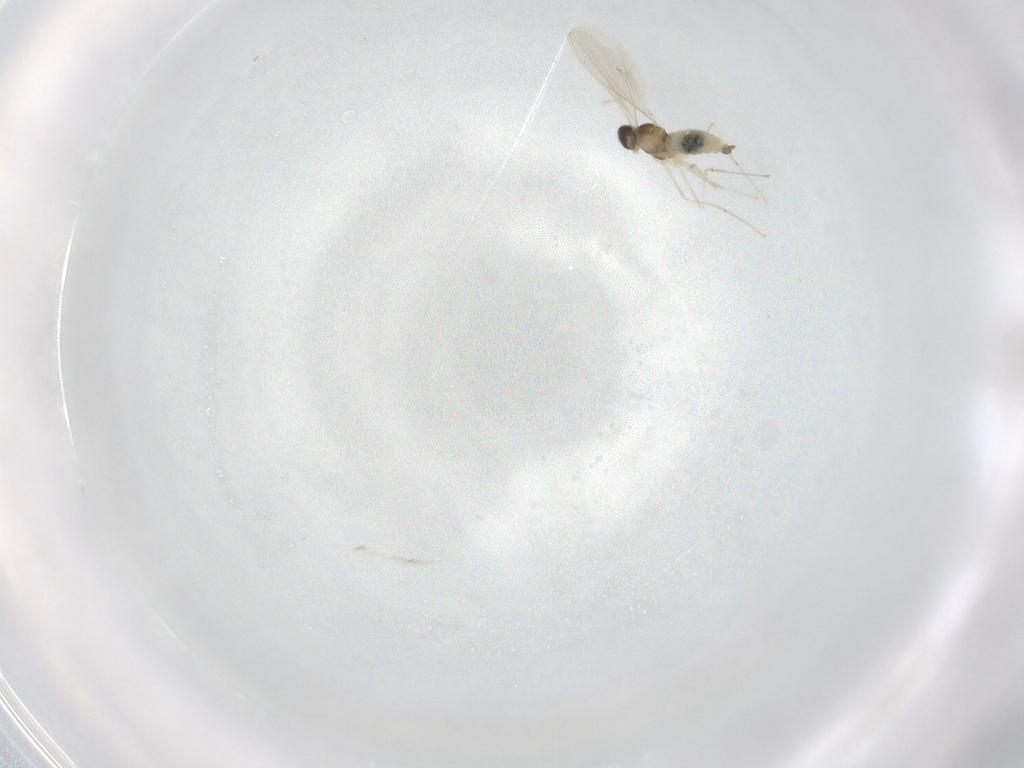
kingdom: Animalia
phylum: Arthropoda
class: Insecta
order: Diptera
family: Cecidomyiidae
